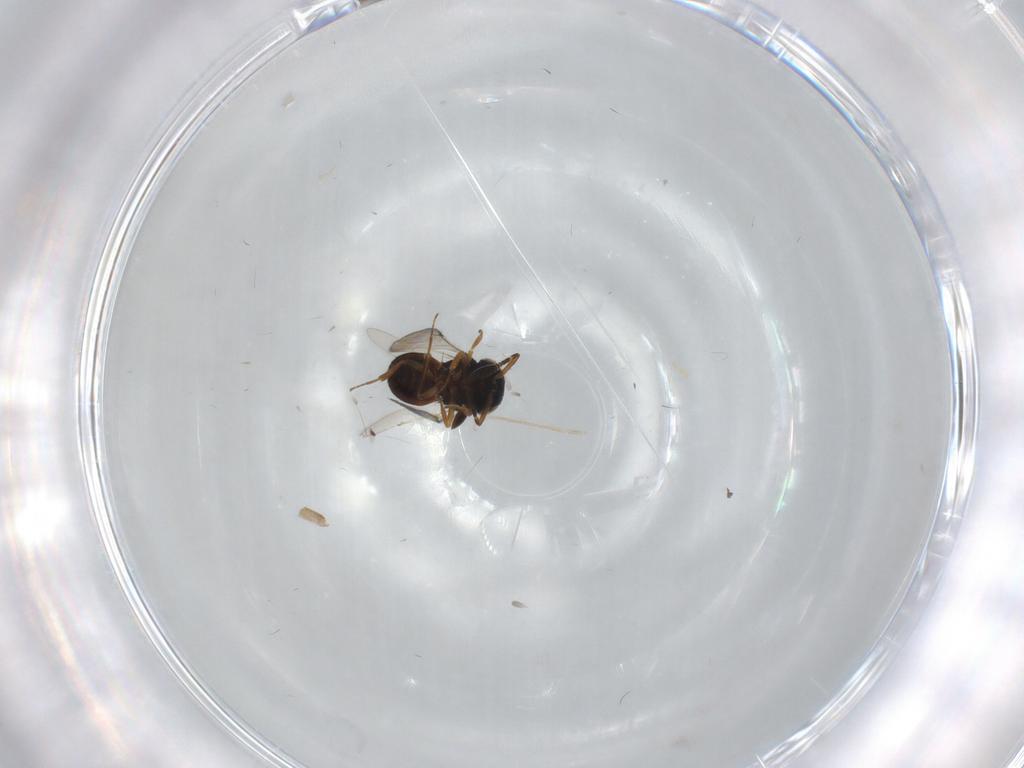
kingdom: Animalia
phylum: Arthropoda
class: Insecta
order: Hymenoptera
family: Scelionidae
